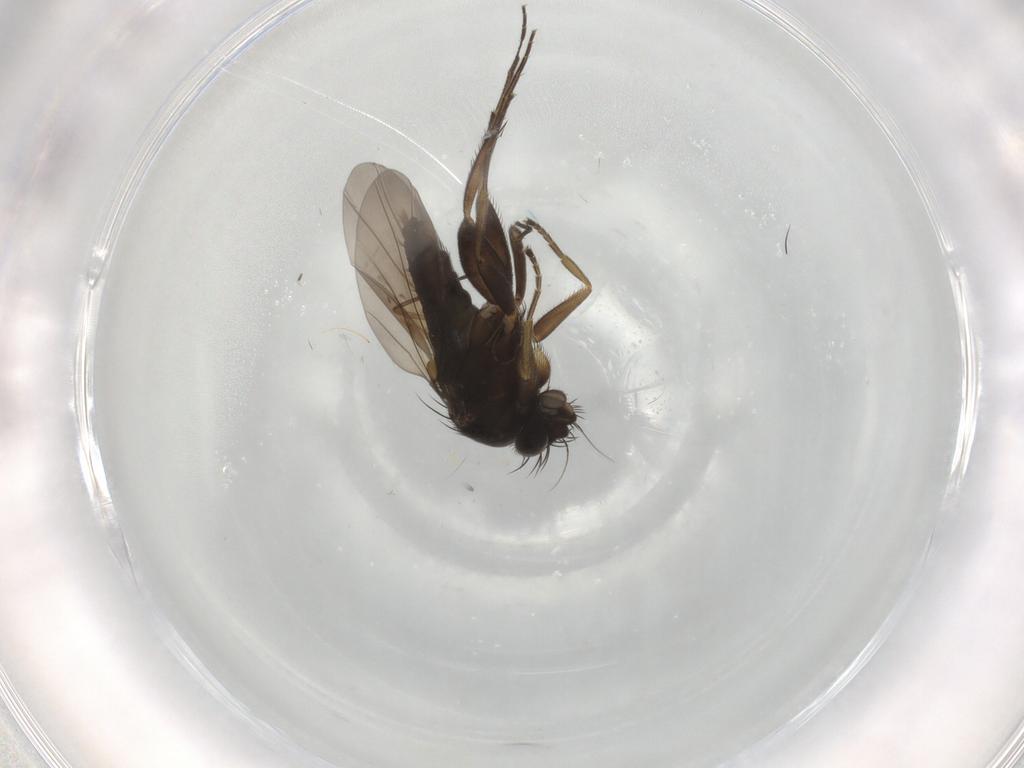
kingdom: Animalia
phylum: Arthropoda
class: Insecta
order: Diptera
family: Phoridae
